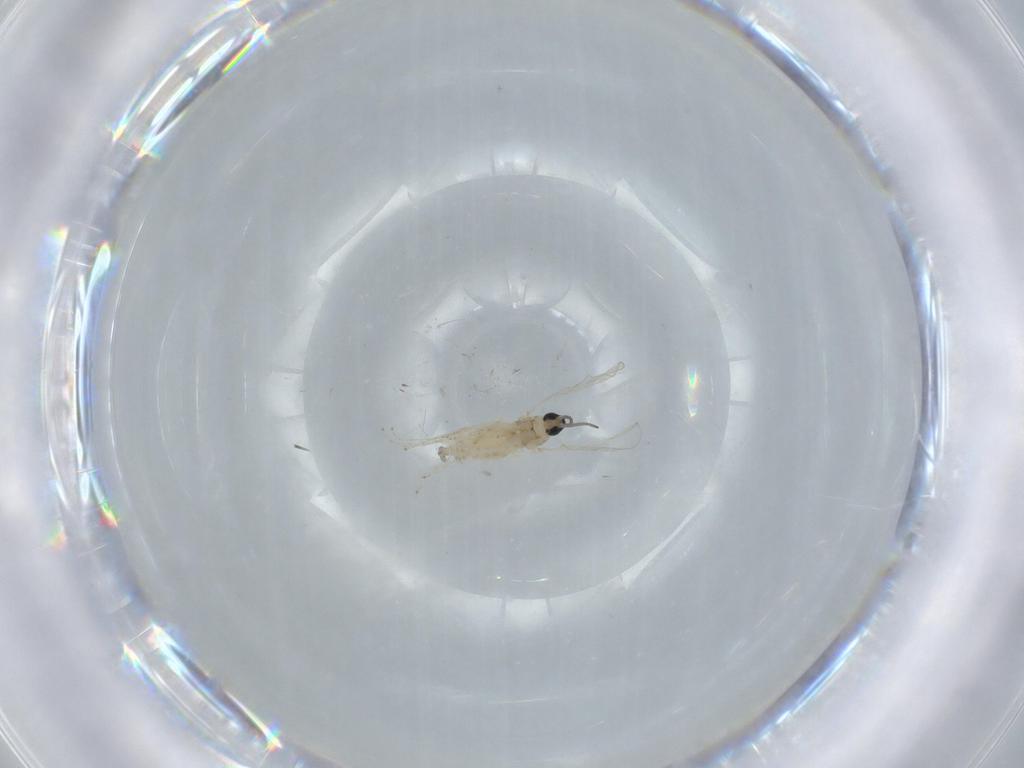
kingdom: Animalia
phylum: Arthropoda
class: Insecta
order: Diptera
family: Cecidomyiidae
